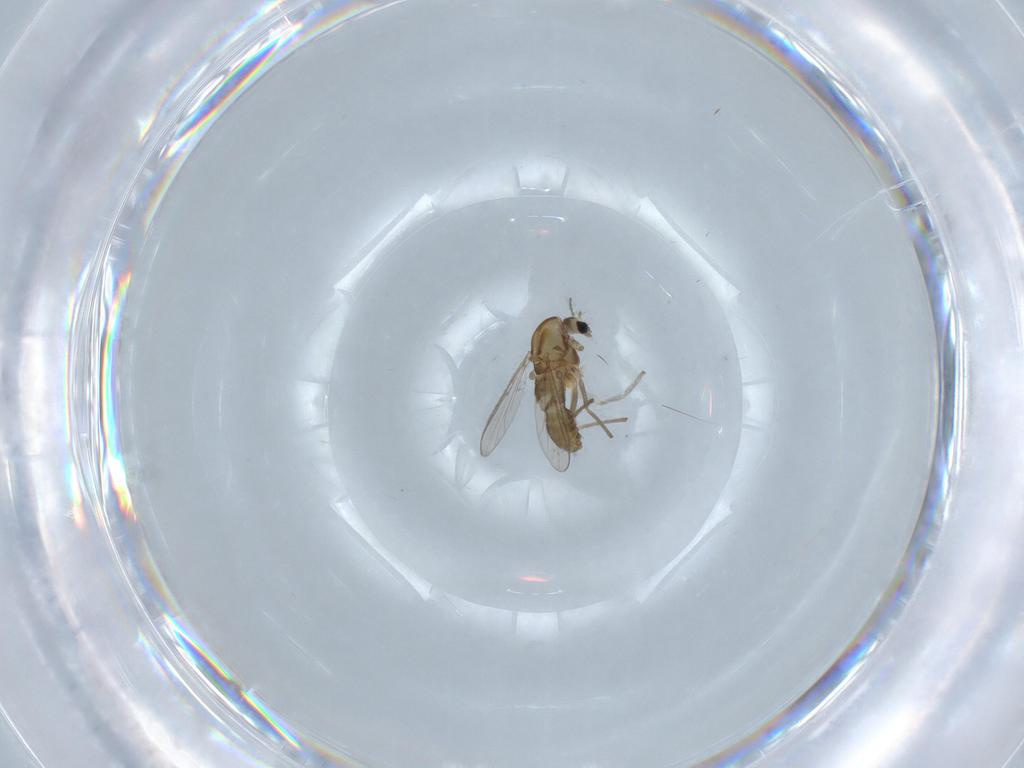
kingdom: Animalia
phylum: Arthropoda
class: Insecta
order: Diptera
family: Chironomidae
